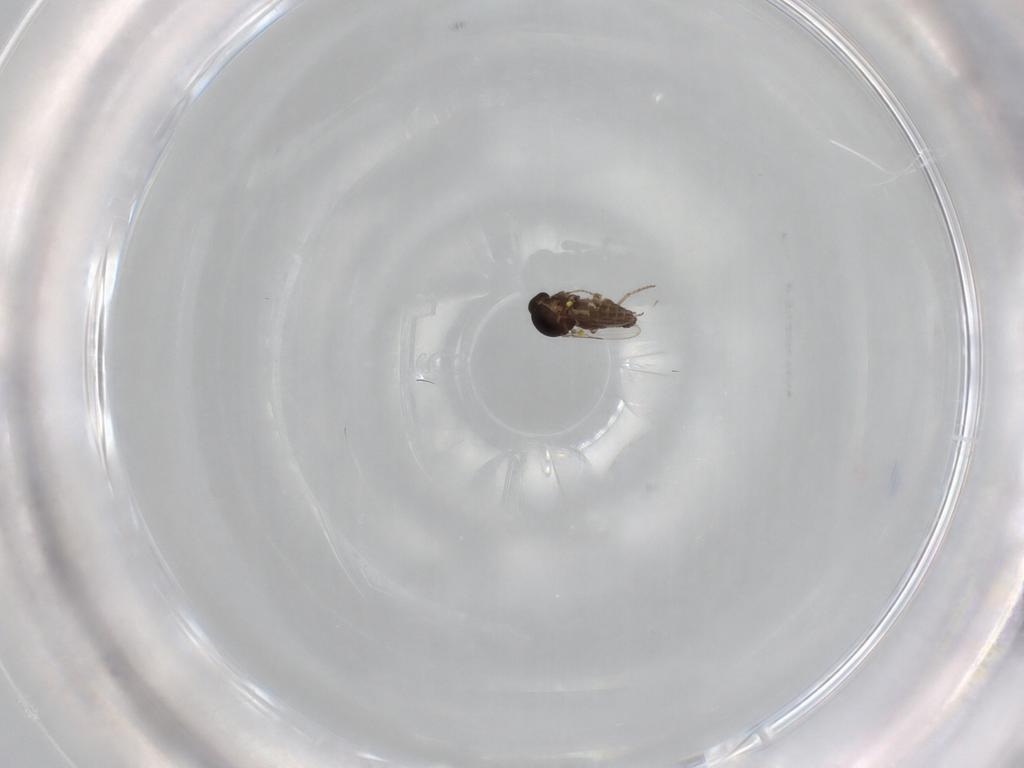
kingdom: Animalia
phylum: Arthropoda
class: Insecta
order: Diptera
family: Ceratopogonidae
